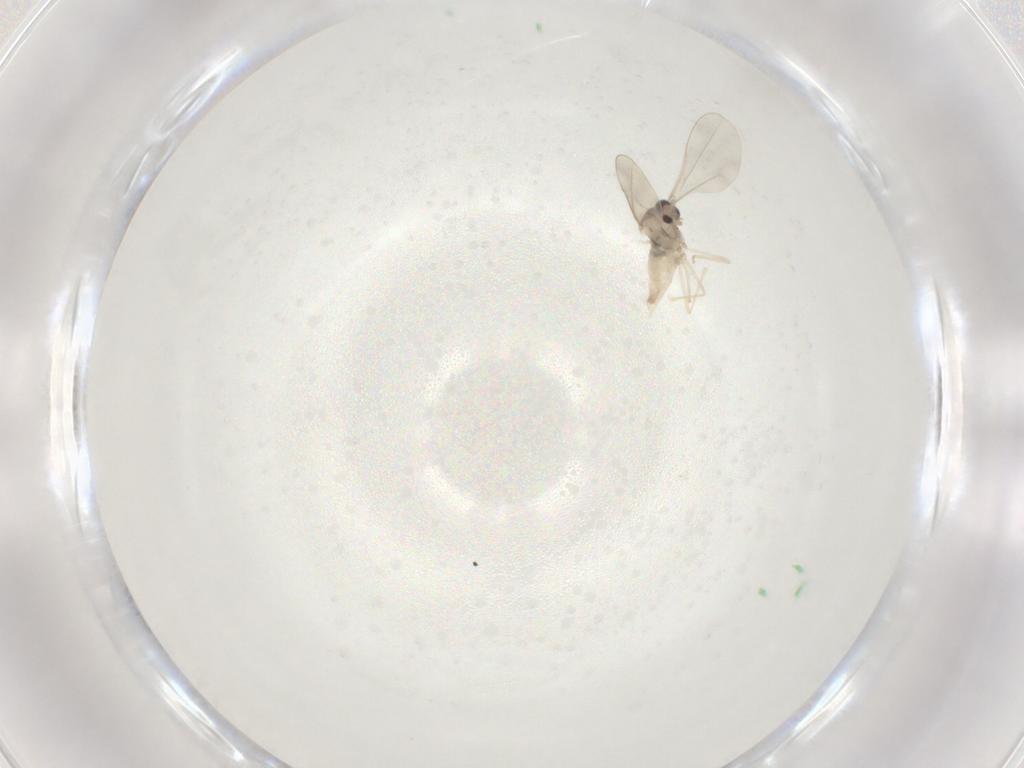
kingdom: Animalia
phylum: Arthropoda
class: Insecta
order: Diptera
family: Cecidomyiidae
